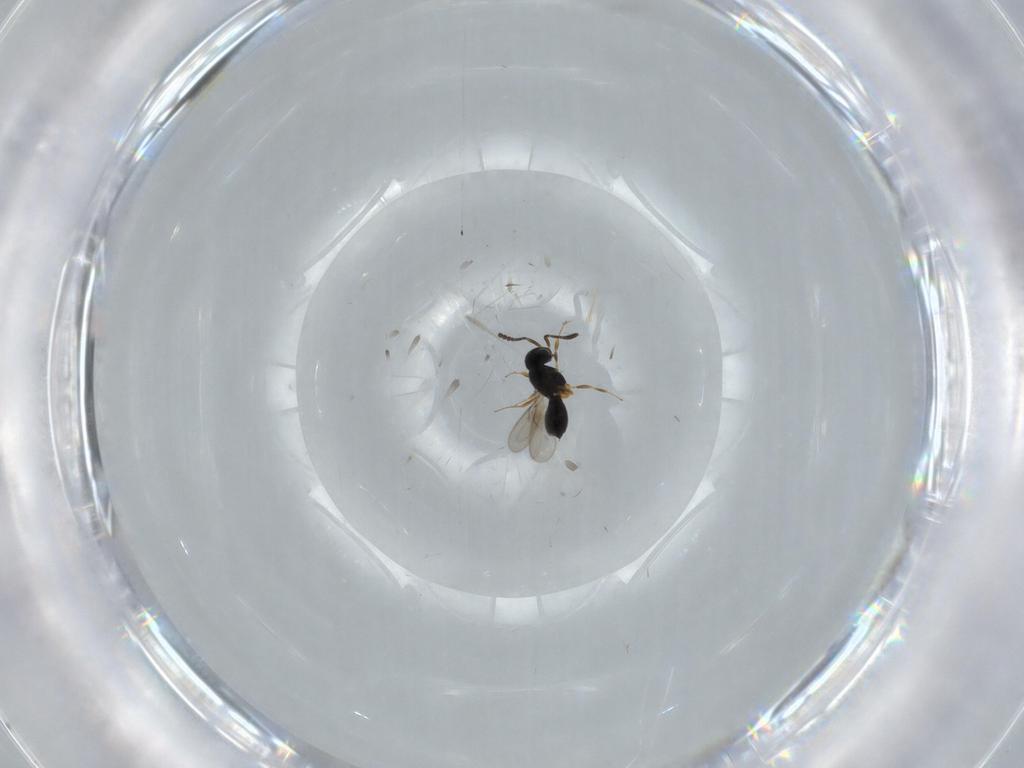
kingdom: Animalia
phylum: Arthropoda
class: Insecta
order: Hymenoptera
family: Scelionidae
